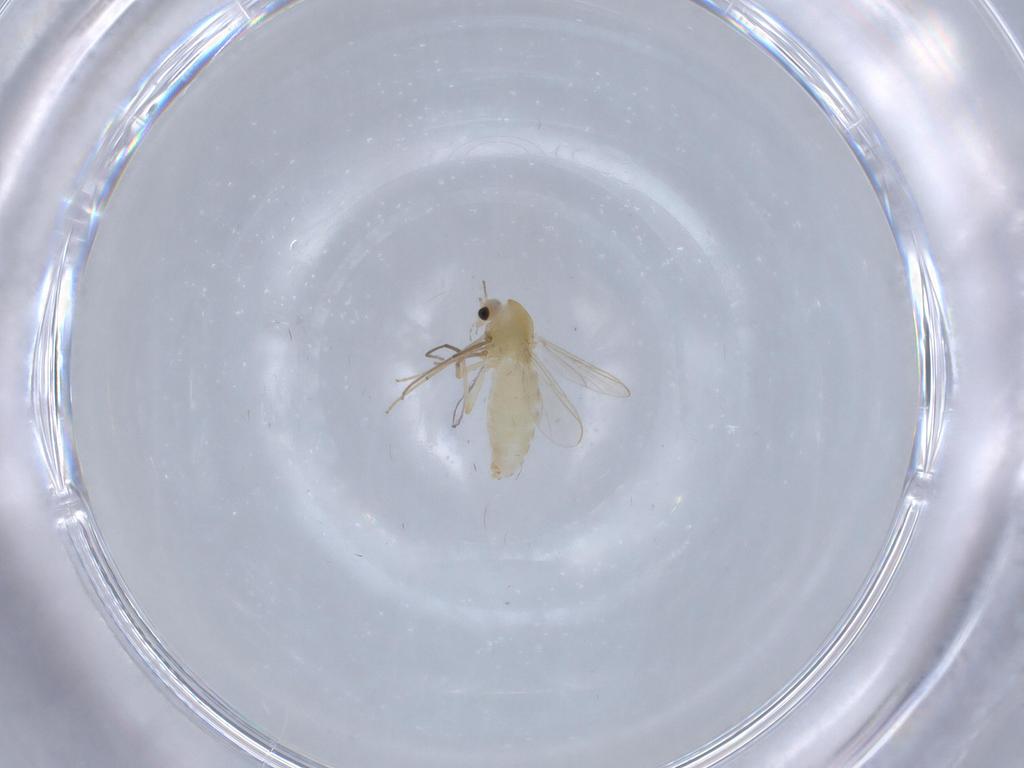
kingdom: Animalia
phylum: Arthropoda
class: Insecta
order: Diptera
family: Chironomidae
